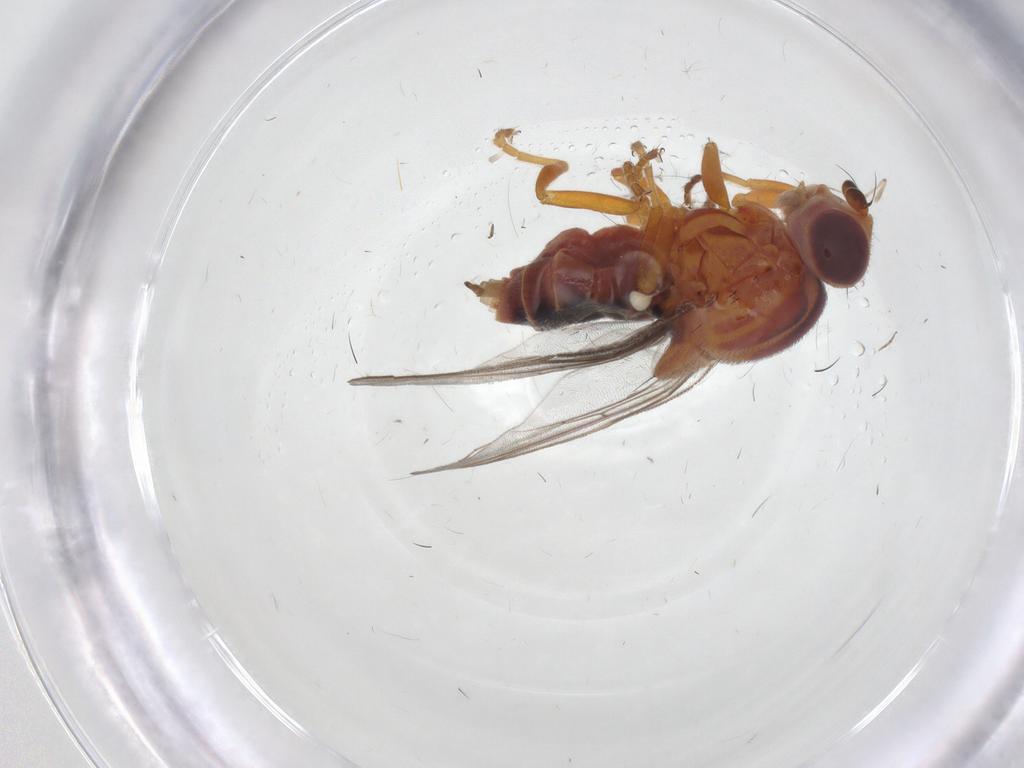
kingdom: Animalia
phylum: Arthropoda
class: Insecta
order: Diptera
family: Chloropidae
